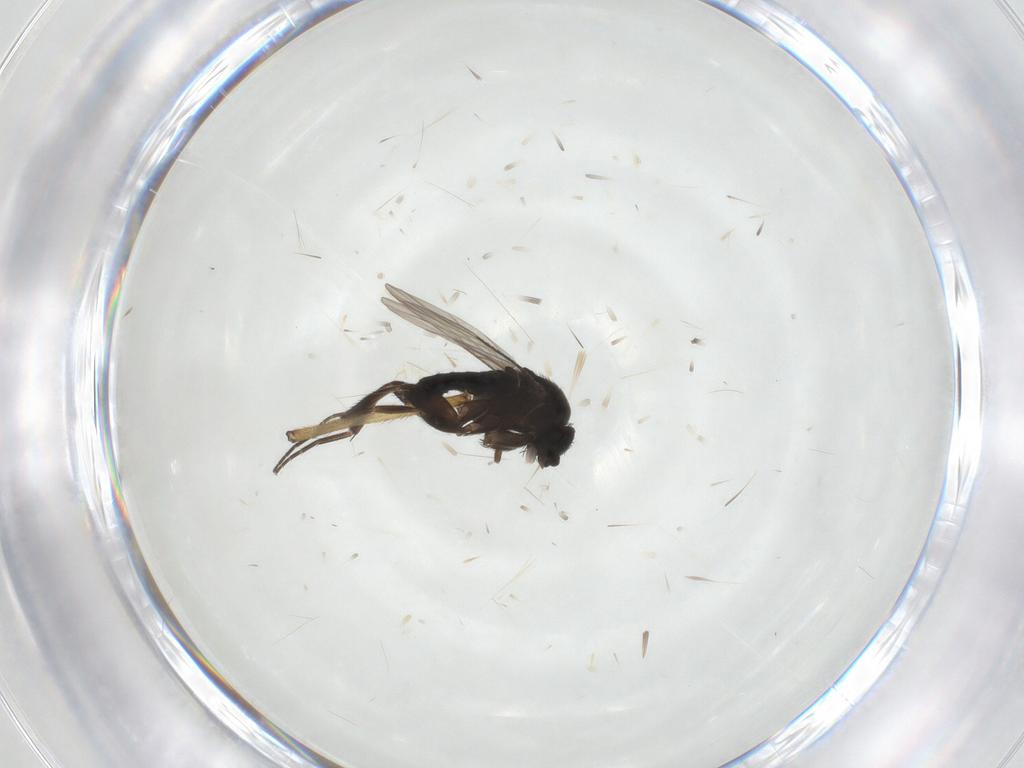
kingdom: Animalia
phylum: Arthropoda
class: Insecta
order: Diptera
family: Phoridae
